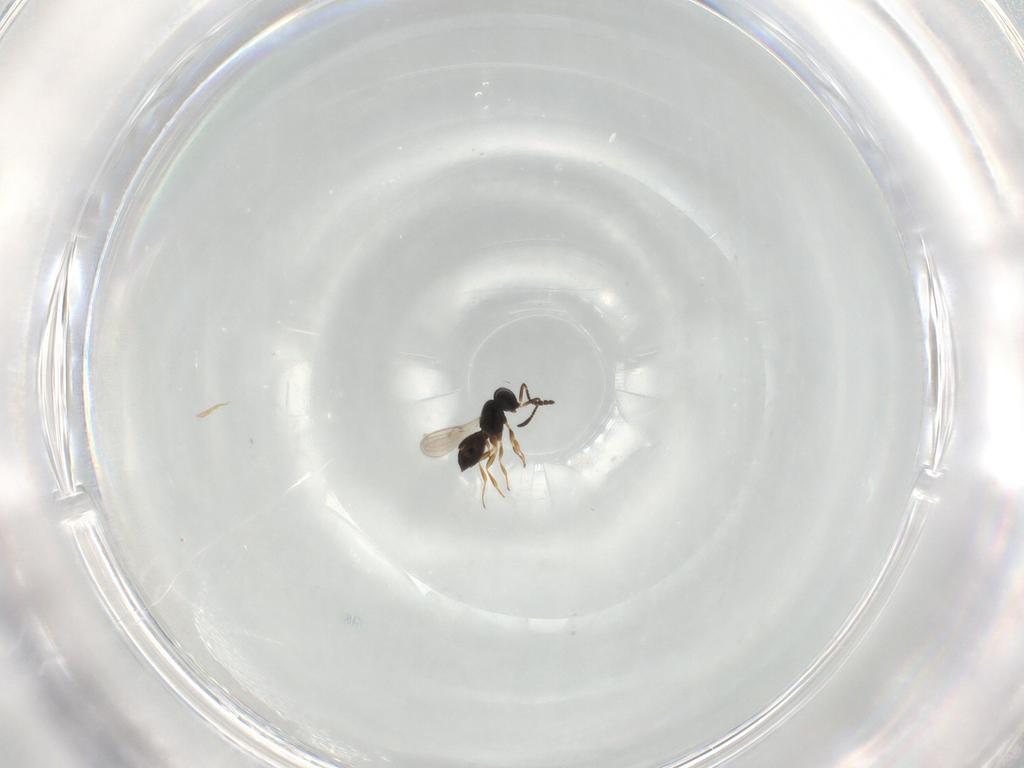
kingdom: Animalia
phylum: Arthropoda
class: Insecta
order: Hymenoptera
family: Scelionidae
